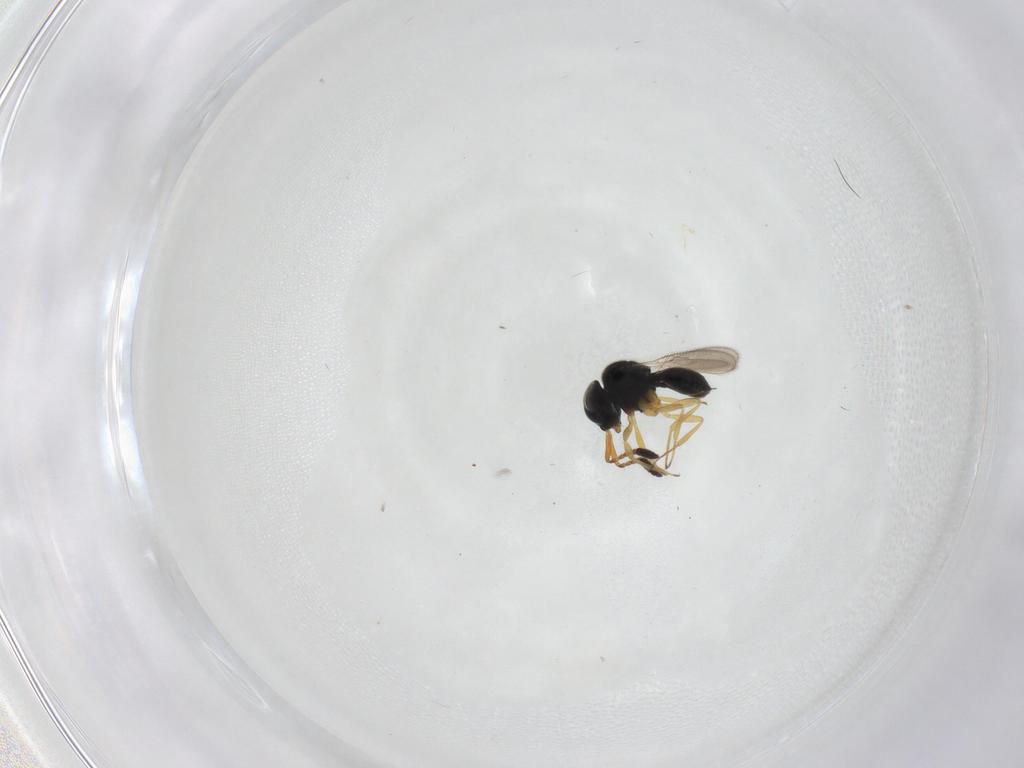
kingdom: Animalia
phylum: Arthropoda
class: Insecta
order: Hymenoptera
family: Scelionidae
